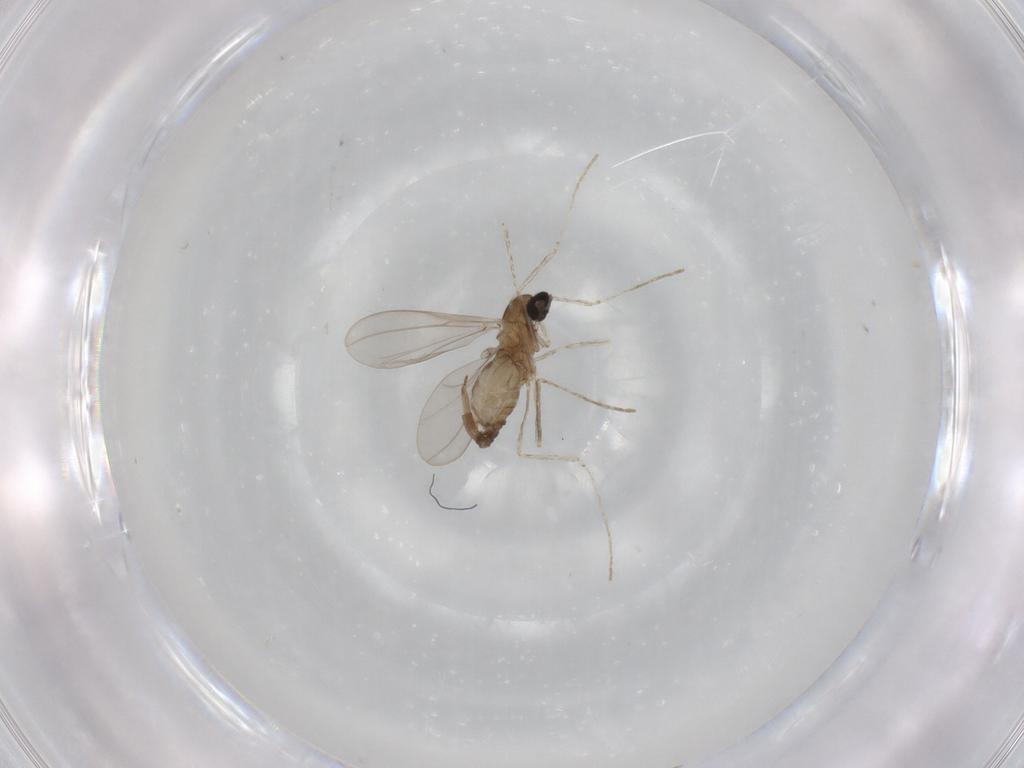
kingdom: Animalia
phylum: Arthropoda
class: Insecta
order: Diptera
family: Cecidomyiidae
